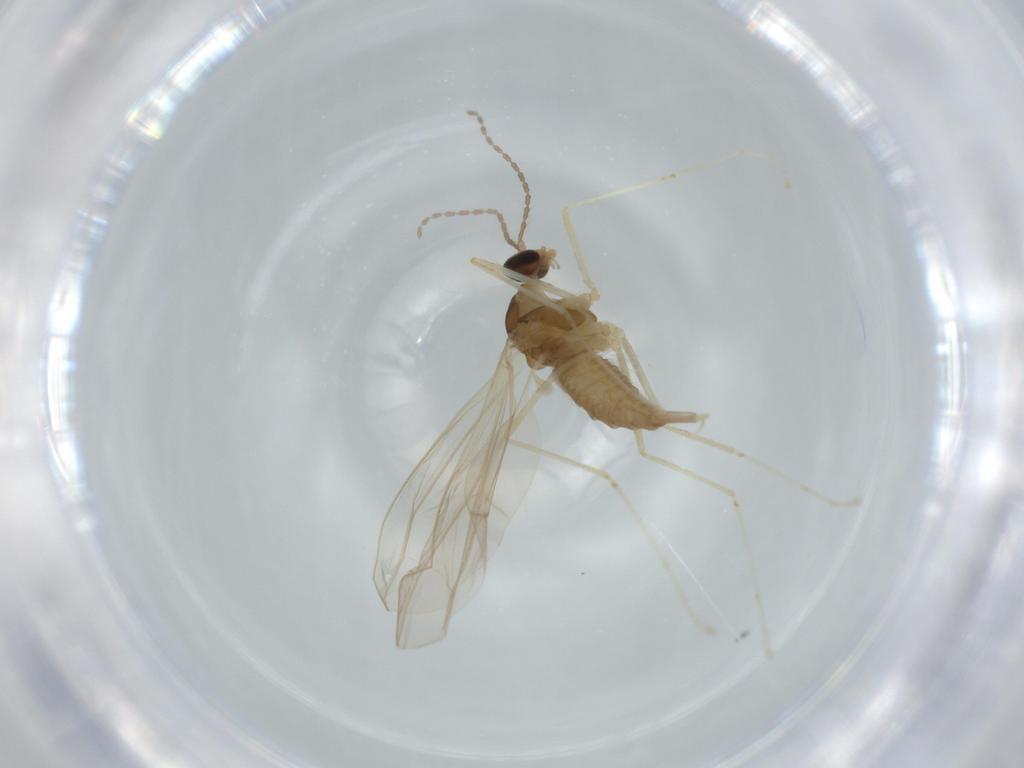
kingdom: Animalia
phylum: Arthropoda
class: Insecta
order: Diptera
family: Cecidomyiidae
